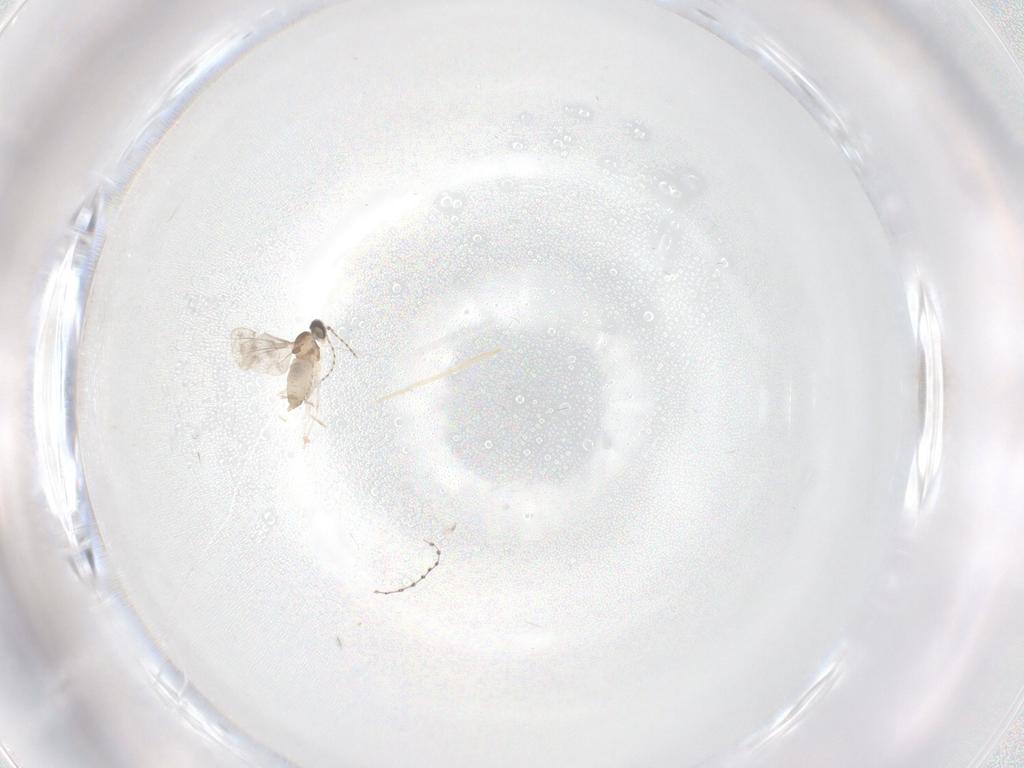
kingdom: Animalia
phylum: Arthropoda
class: Insecta
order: Diptera
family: Cecidomyiidae
